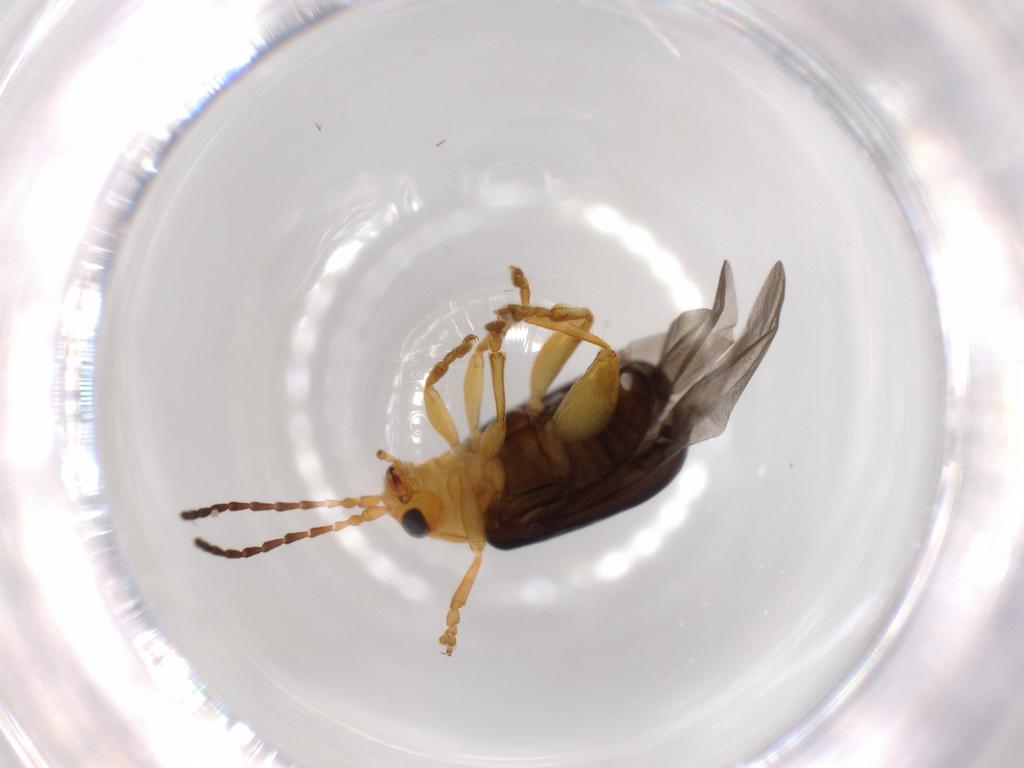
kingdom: Animalia
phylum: Arthropoda
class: Insecta
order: Coleoptera
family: Chrysomelidae
